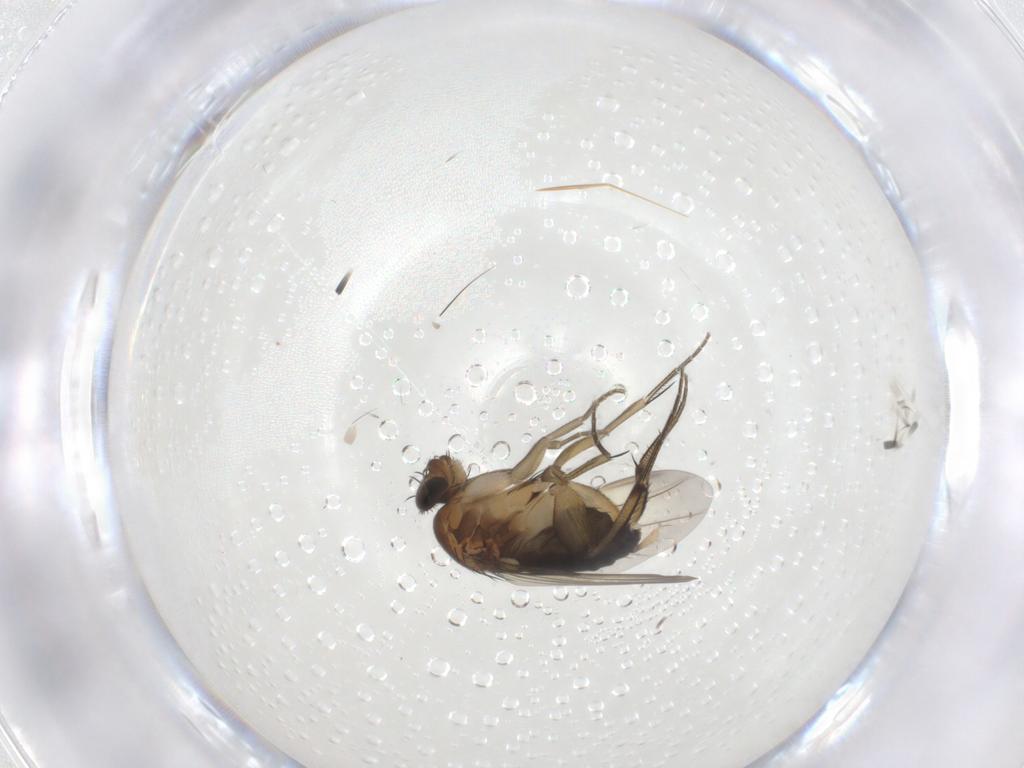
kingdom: Animalia
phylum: Arthropoda
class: Insecta
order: Diptera
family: Phoridae
